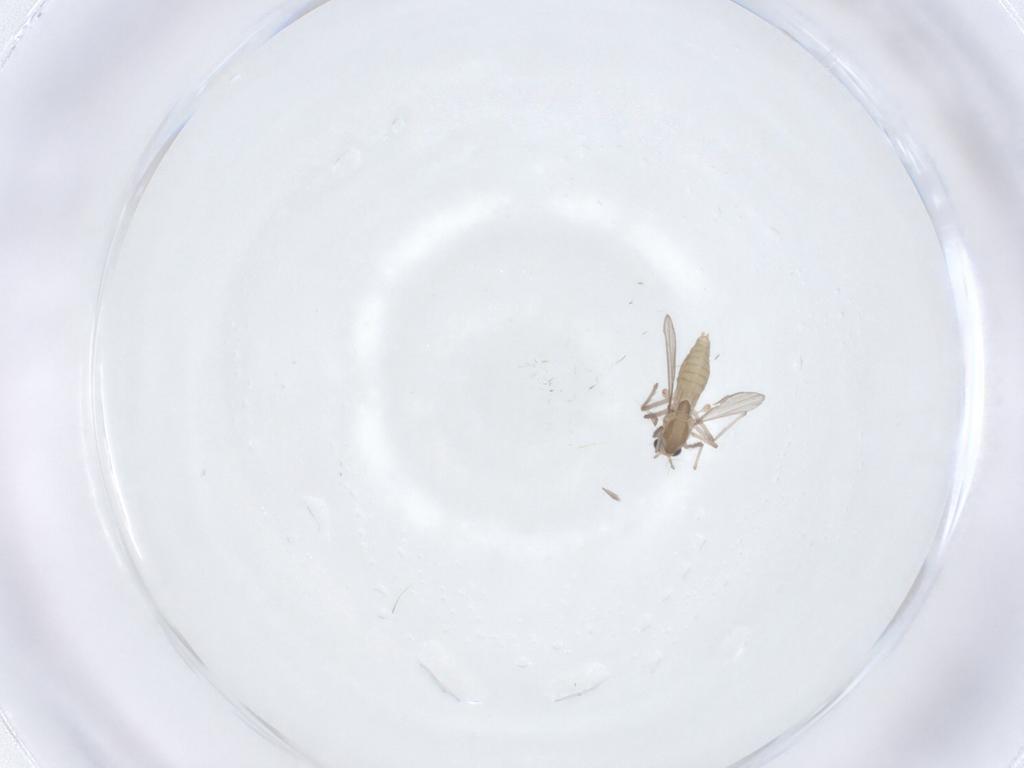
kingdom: Animalia
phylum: Arthropoda
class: Insecta
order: Diptera
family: Chironomidae
